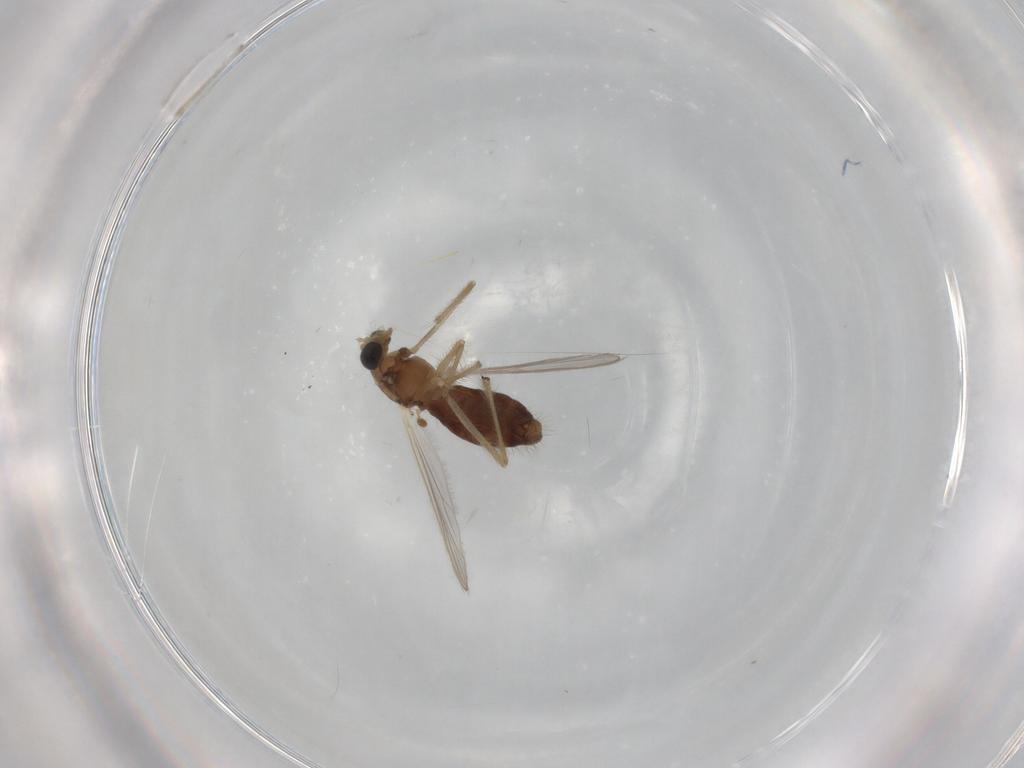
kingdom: Animalia
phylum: Arthropoda
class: Insecta
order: Diptera
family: Chironomidae
